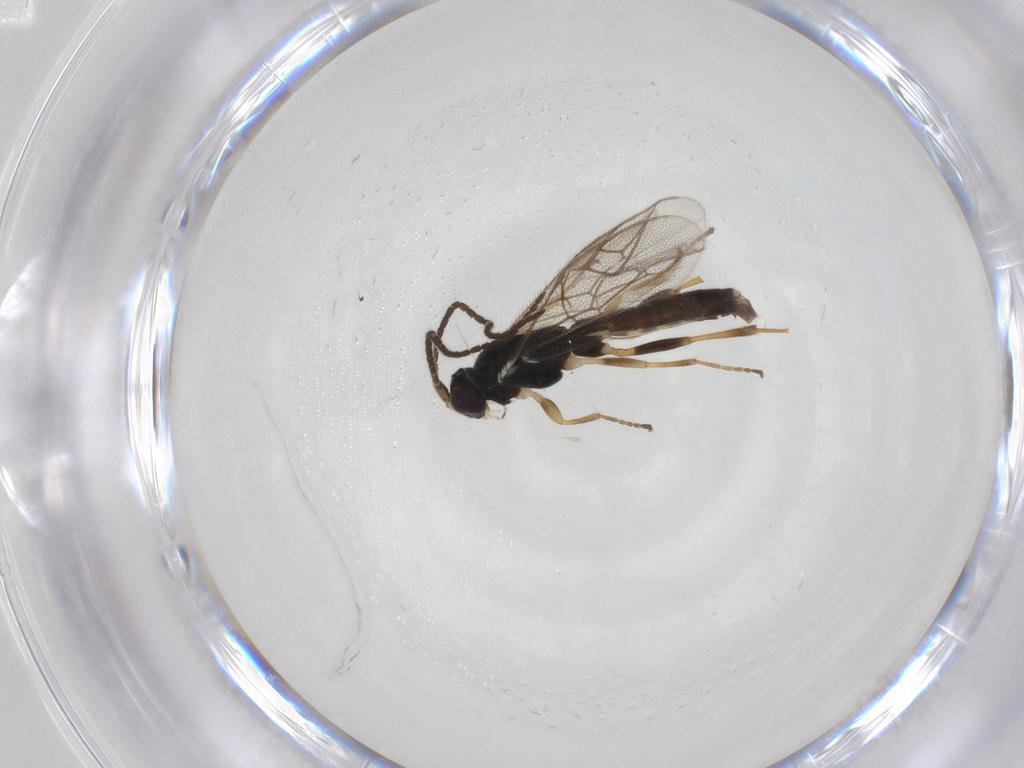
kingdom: Animalia
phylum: Arthropoda
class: Insecta
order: Hymenoptera
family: Ichneumonidae
